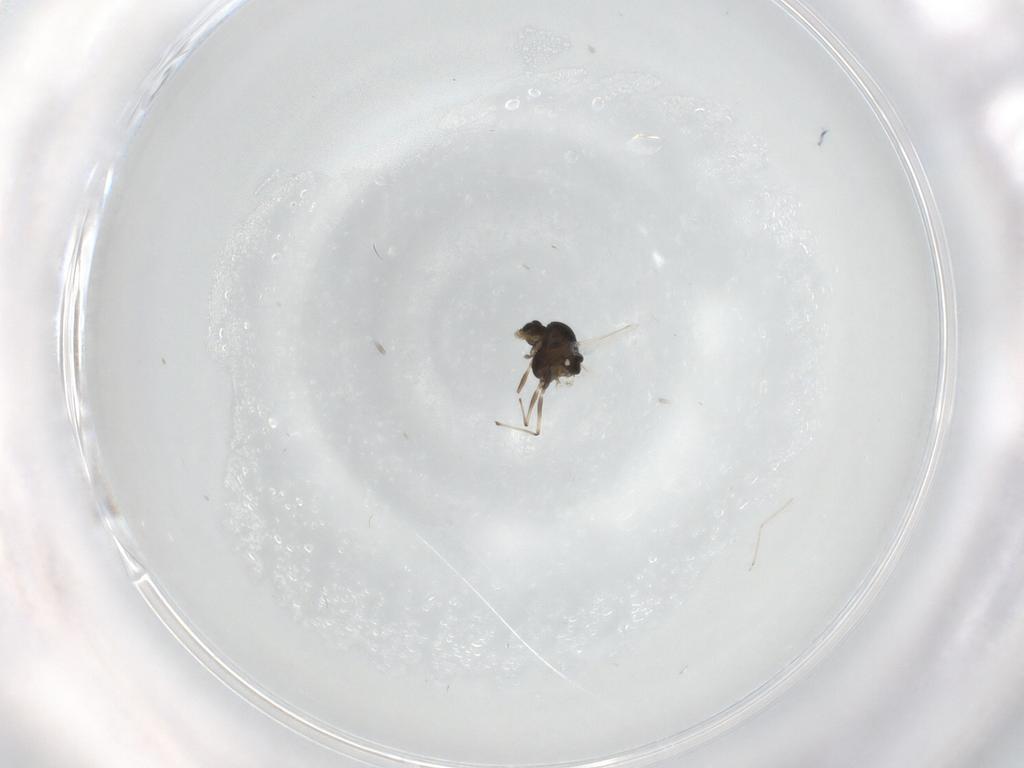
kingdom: Animalia
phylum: Arthropoda
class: Insecta
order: Diptera
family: Chironomidae
